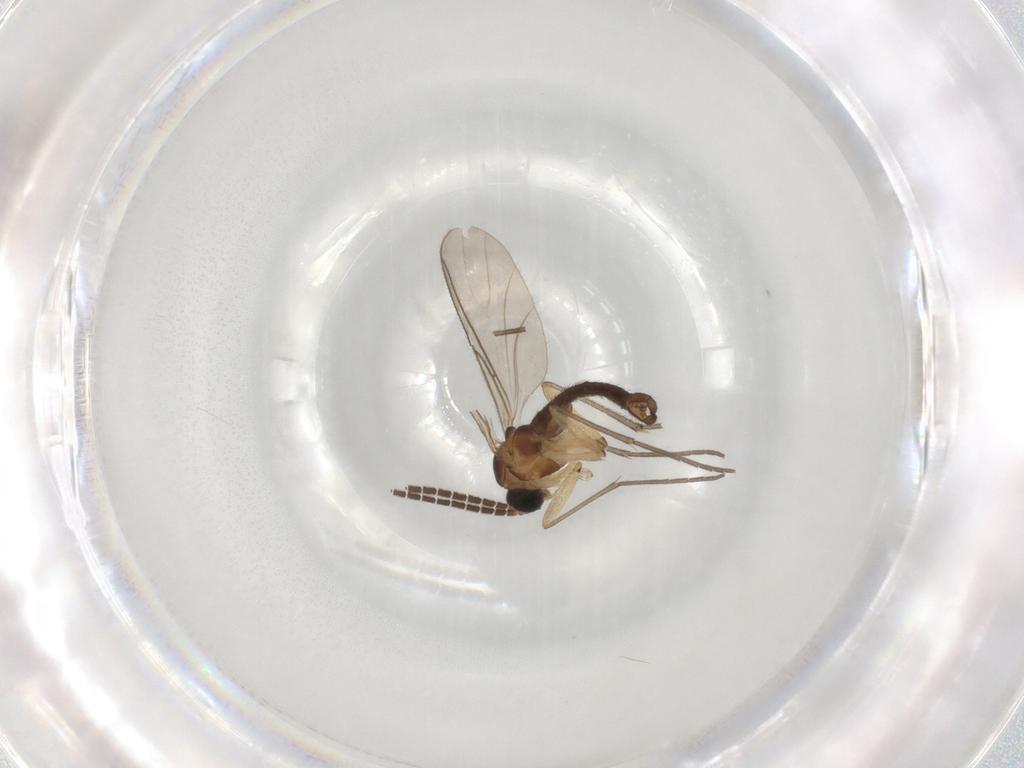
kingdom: Animalia
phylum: Arthropoda
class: Insecta
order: Diptera
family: Sciaridae
